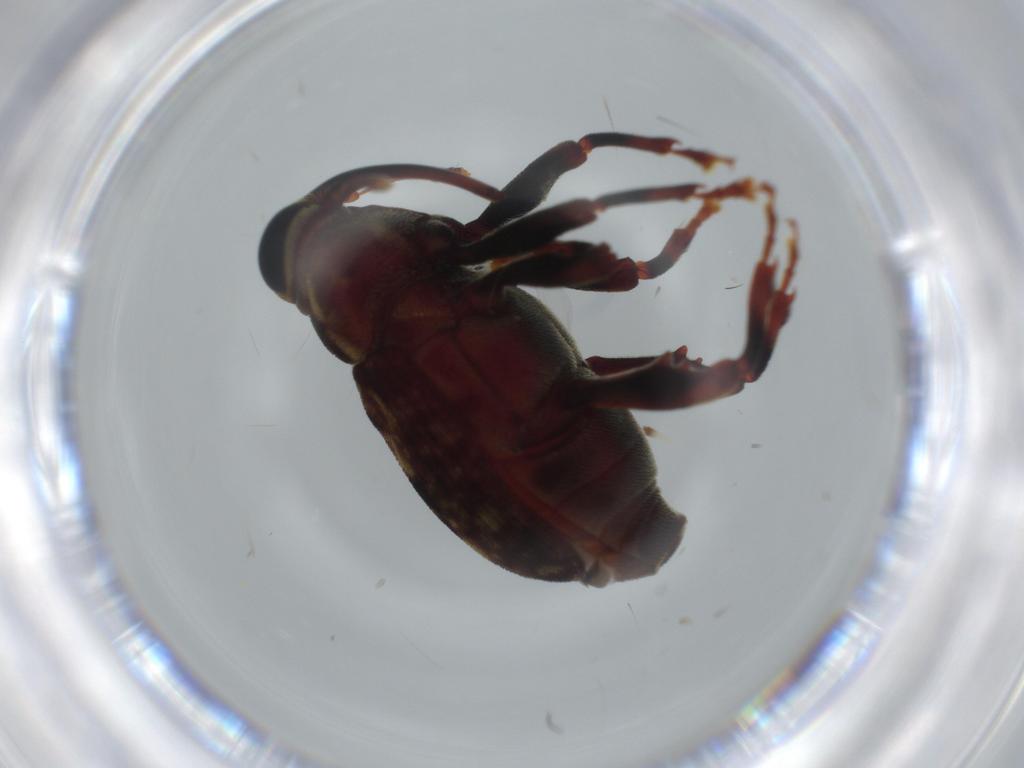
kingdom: Animalia
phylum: Arthropoda
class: Insecta
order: Coleoptera
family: Curculionidae
